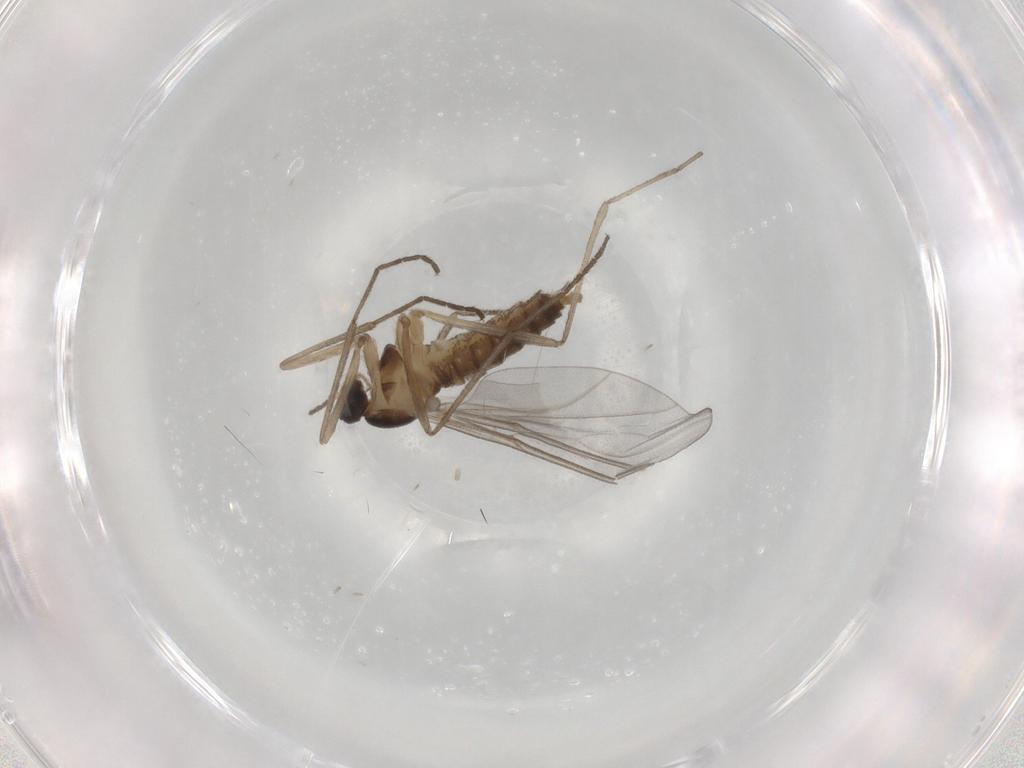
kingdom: Animalia
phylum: Arthropoda
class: Insecta
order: Diptera
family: Cecidomyiidae
